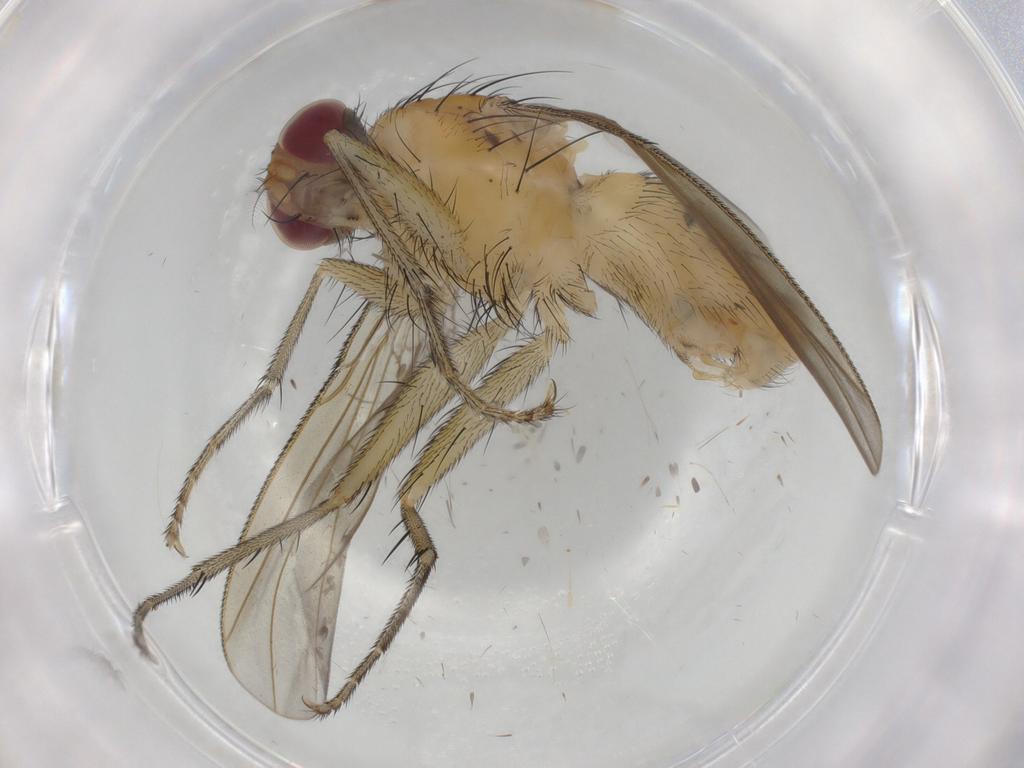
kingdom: Animalia
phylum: Arthropoda
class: Insecta
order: Diptera
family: Muscidae
